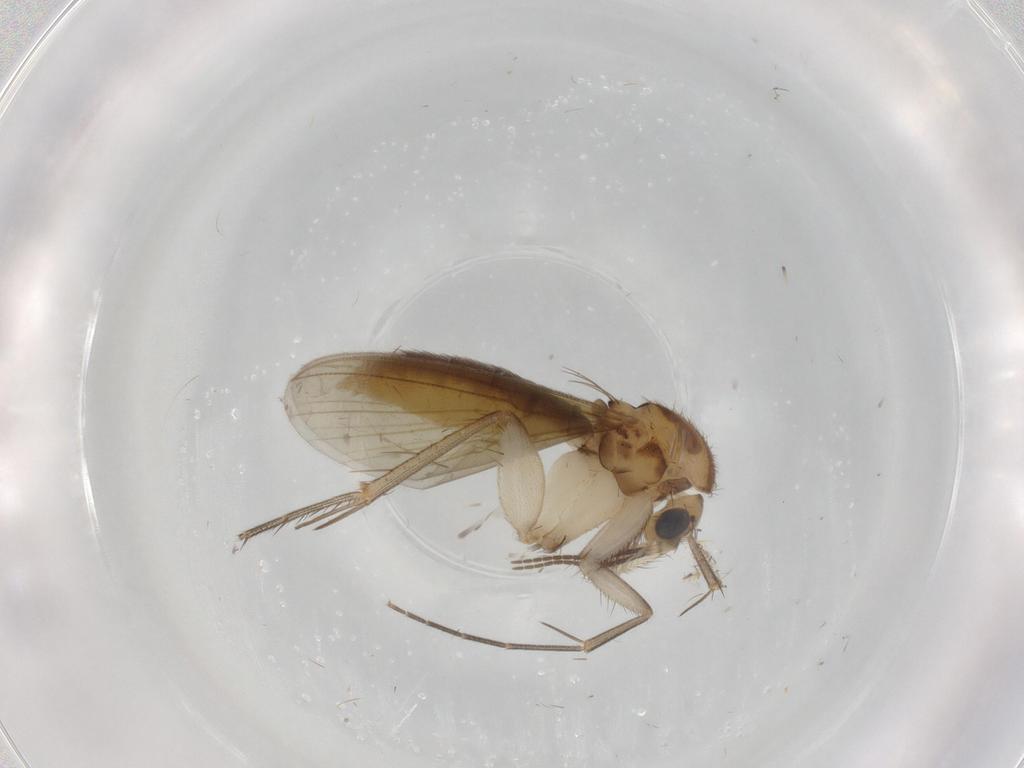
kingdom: Animalia
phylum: Arthropoda
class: Insecta
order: Diptera
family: Mycetophilidae
